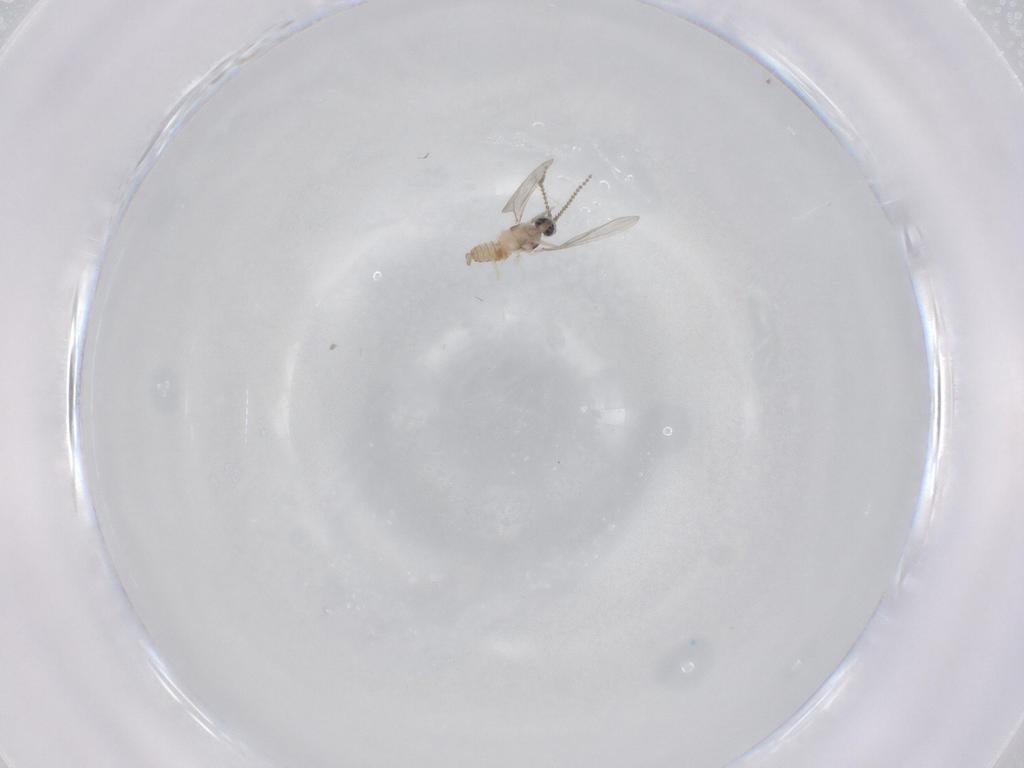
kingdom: Animalia
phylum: Arthropoda
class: Insecta
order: Diptera
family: Cecidomyiidae
